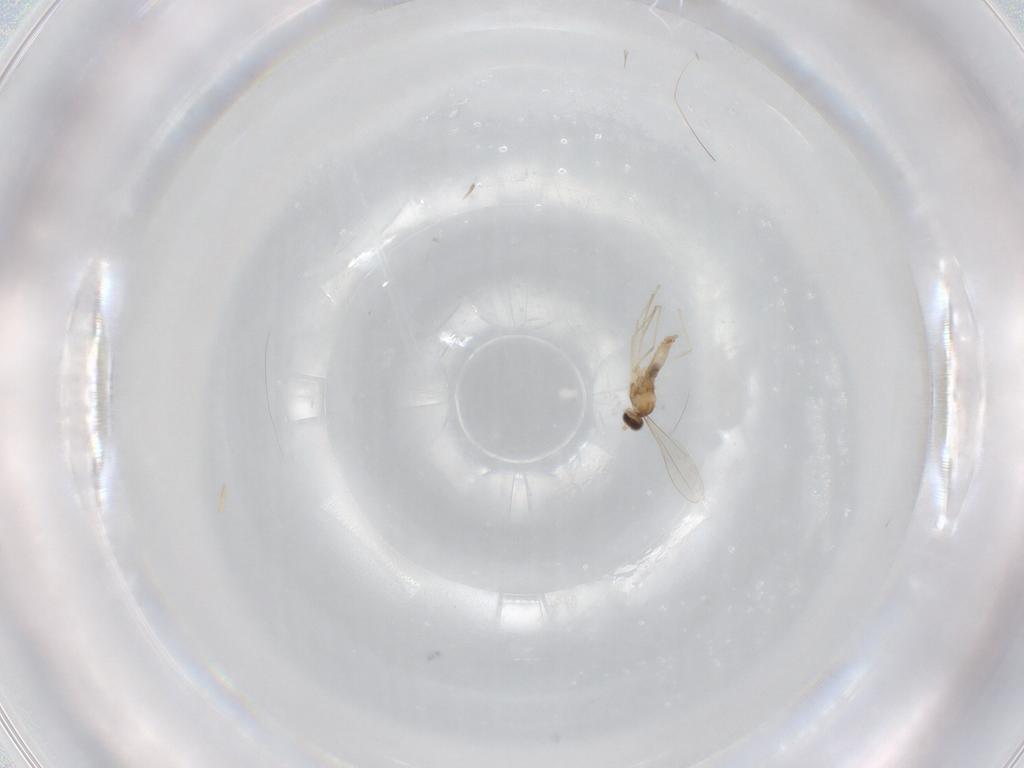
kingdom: Animalia
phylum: Arthropoda
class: Insecta
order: Diptera
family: Cecidomyiidae
